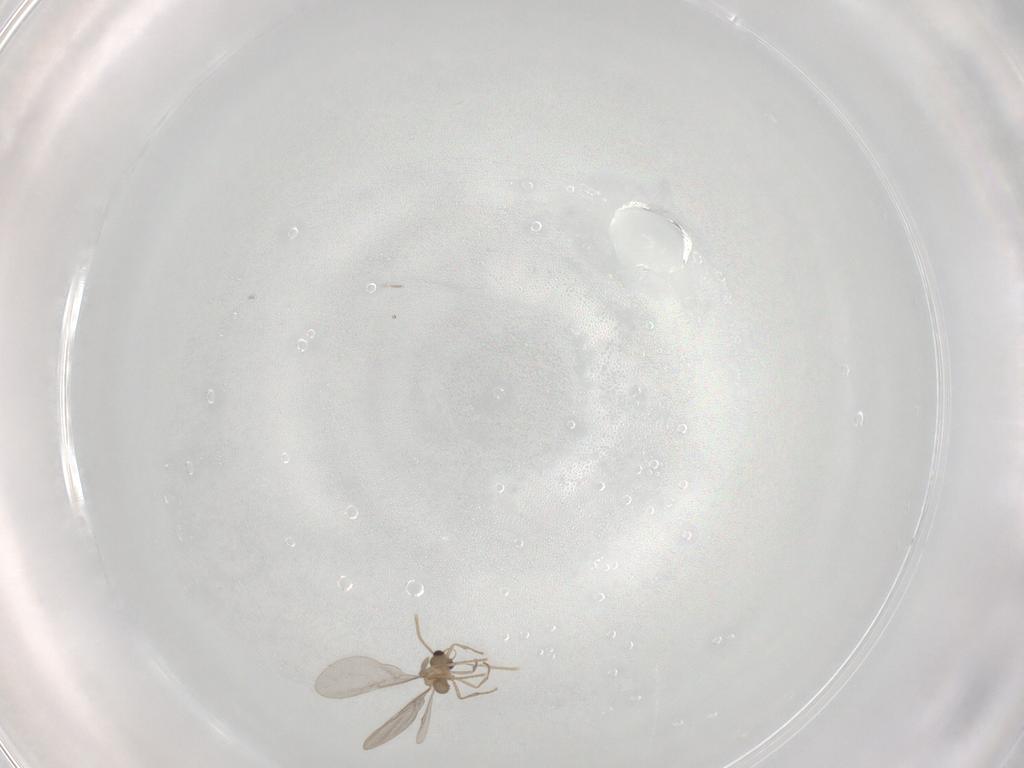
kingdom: Animalia
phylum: Arthropoda
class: Insecta
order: Hymenoptera
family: Formicidae
